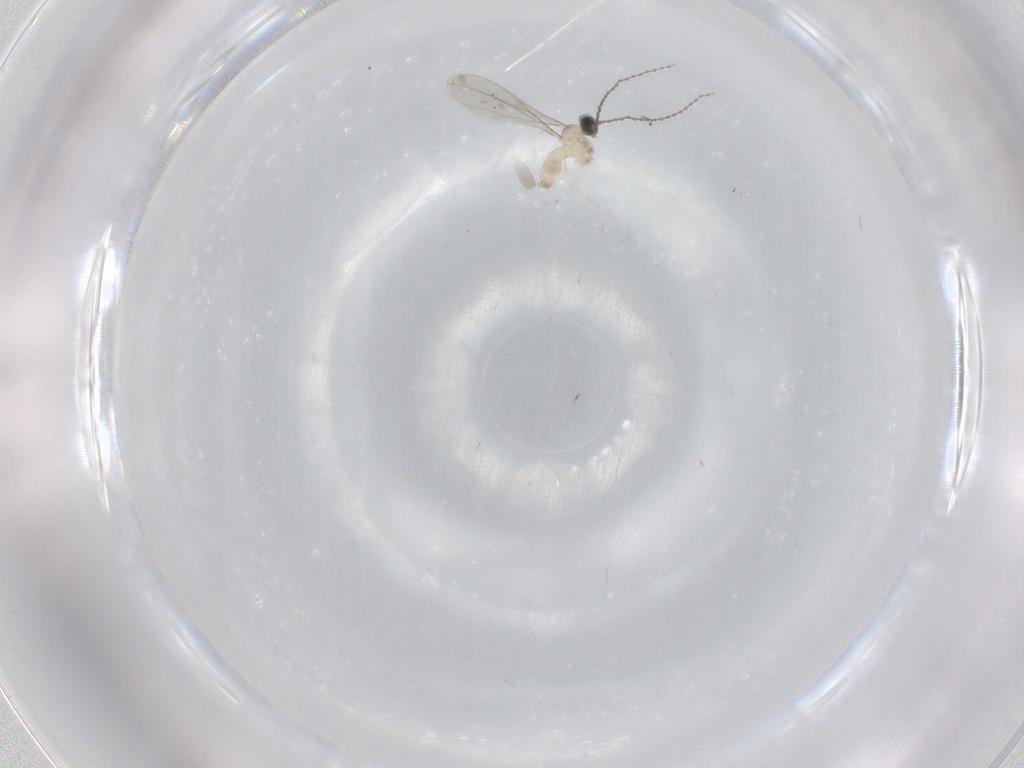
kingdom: Animalia
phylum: Arthropoda
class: Insecta
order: Diptera
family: Cecidomyiidae
